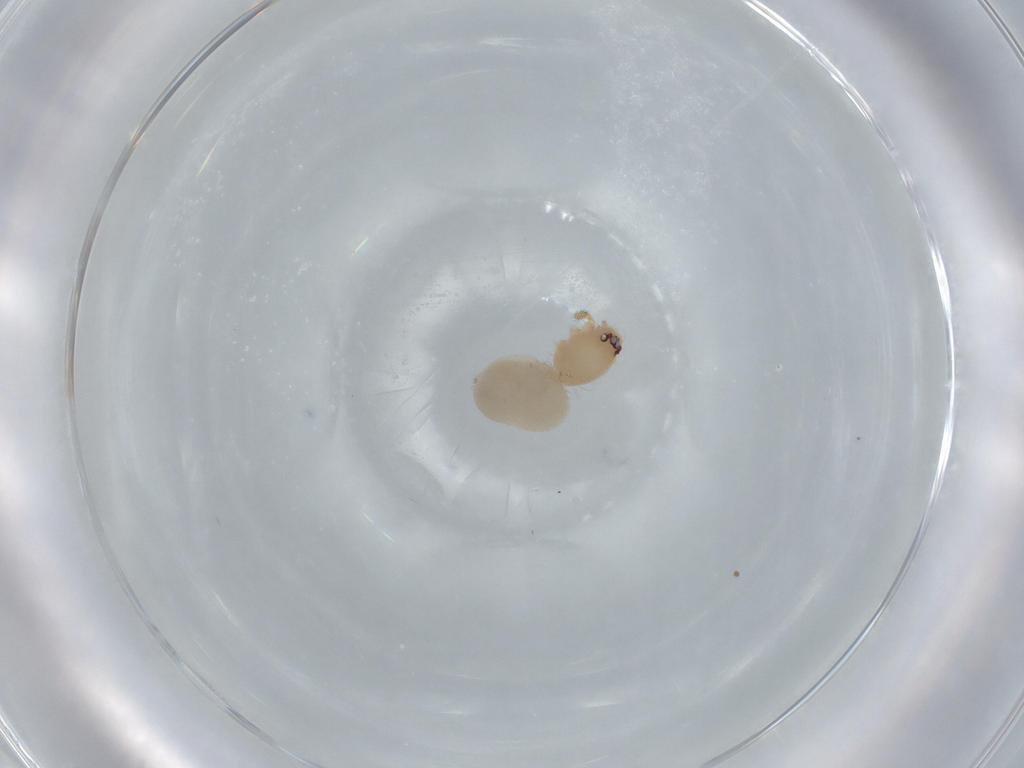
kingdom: Animalia
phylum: Arthropoda
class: Arachnida
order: Araneae
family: Oonopidae
